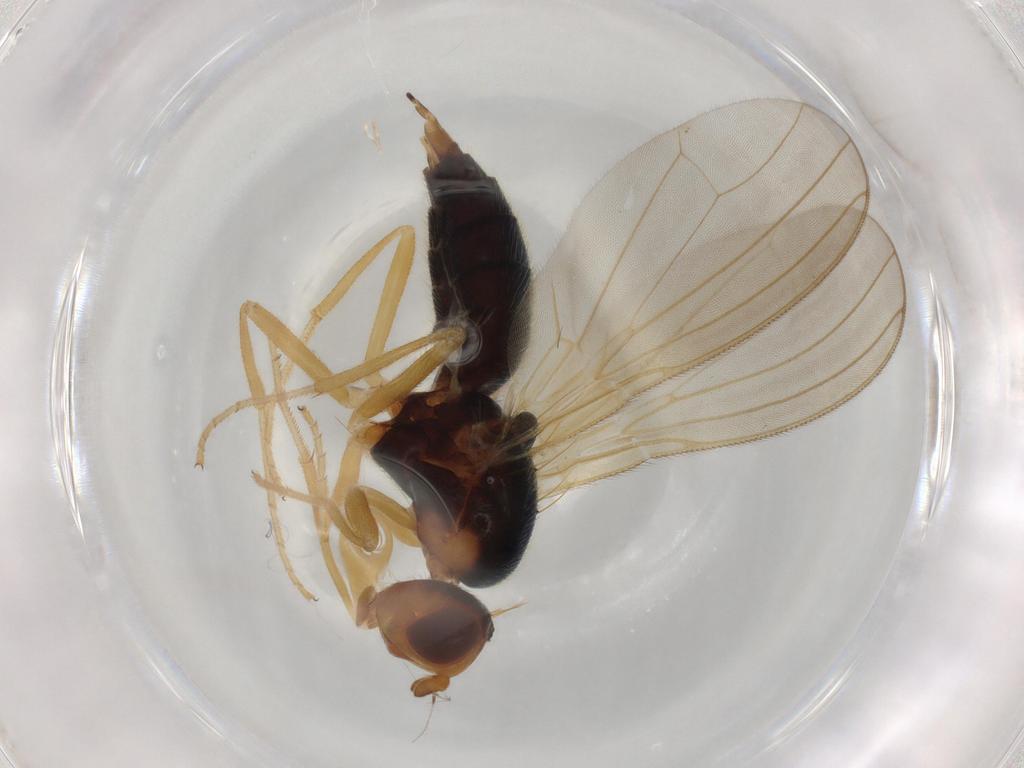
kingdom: Animalia
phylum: Arthropoda
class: Insecta
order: Diptera
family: Drosophilidae
